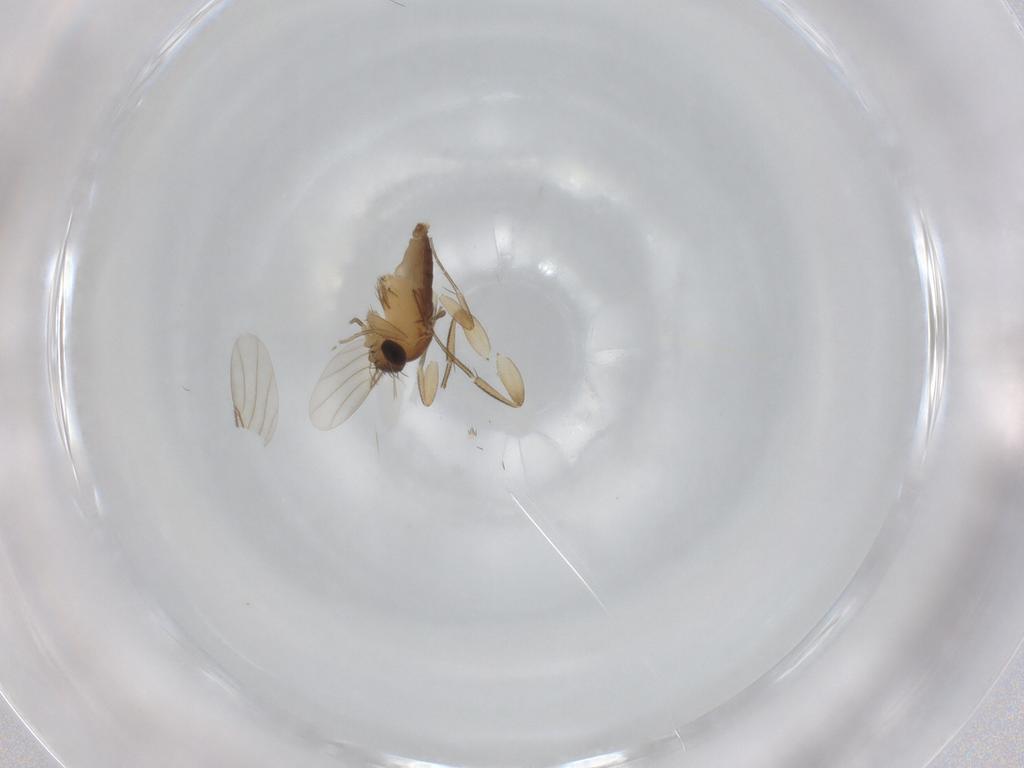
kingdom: Animalia
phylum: Arthropoda
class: Insecta
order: Diptera
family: Phoridae
